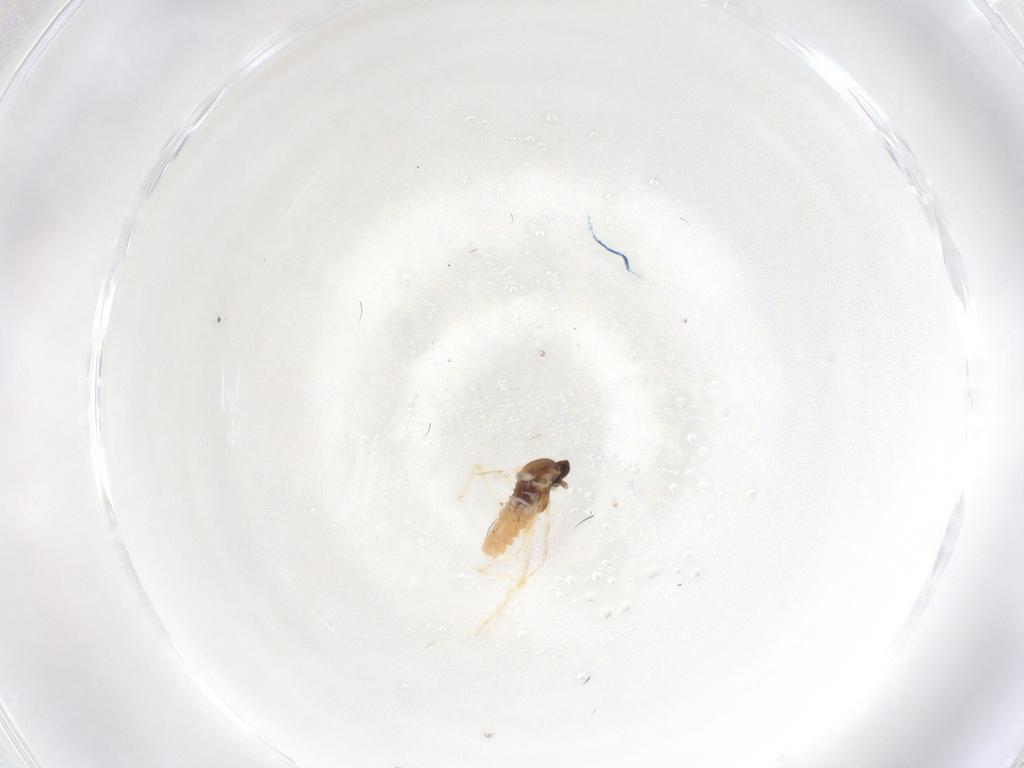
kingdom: Animalia
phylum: Arthropoda
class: Insecta
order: Diptera
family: Cecidomyiidae
